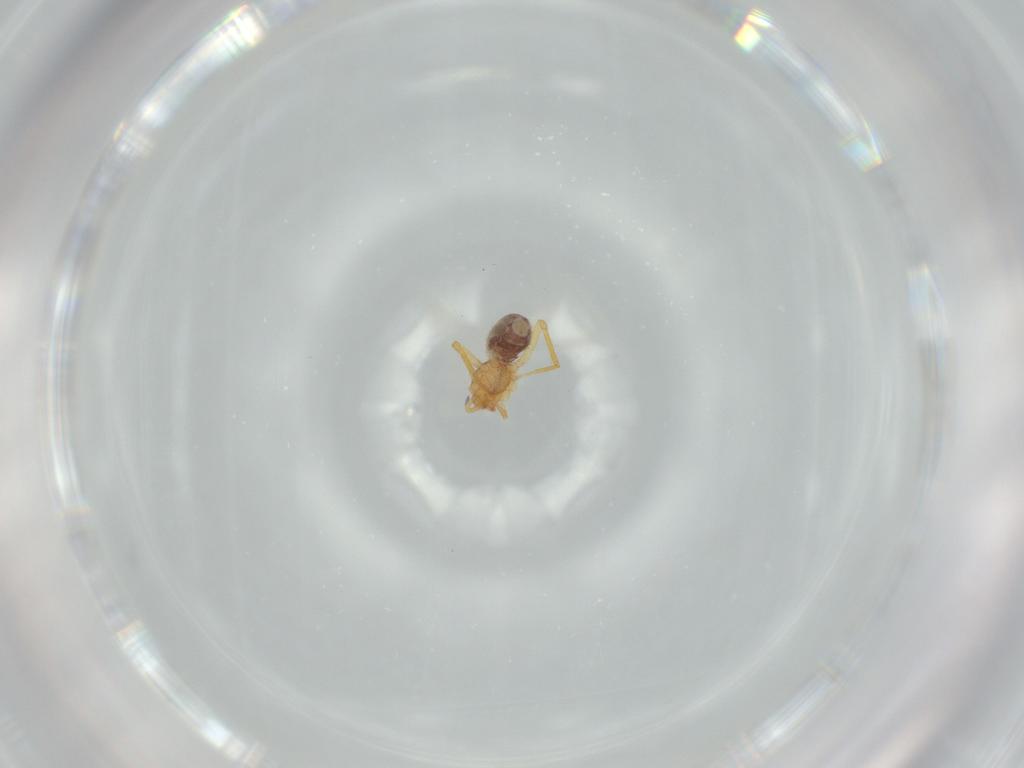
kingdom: Animalia
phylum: Arthropoda
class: Arachnida
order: Araneae
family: Ochyroceratidae
